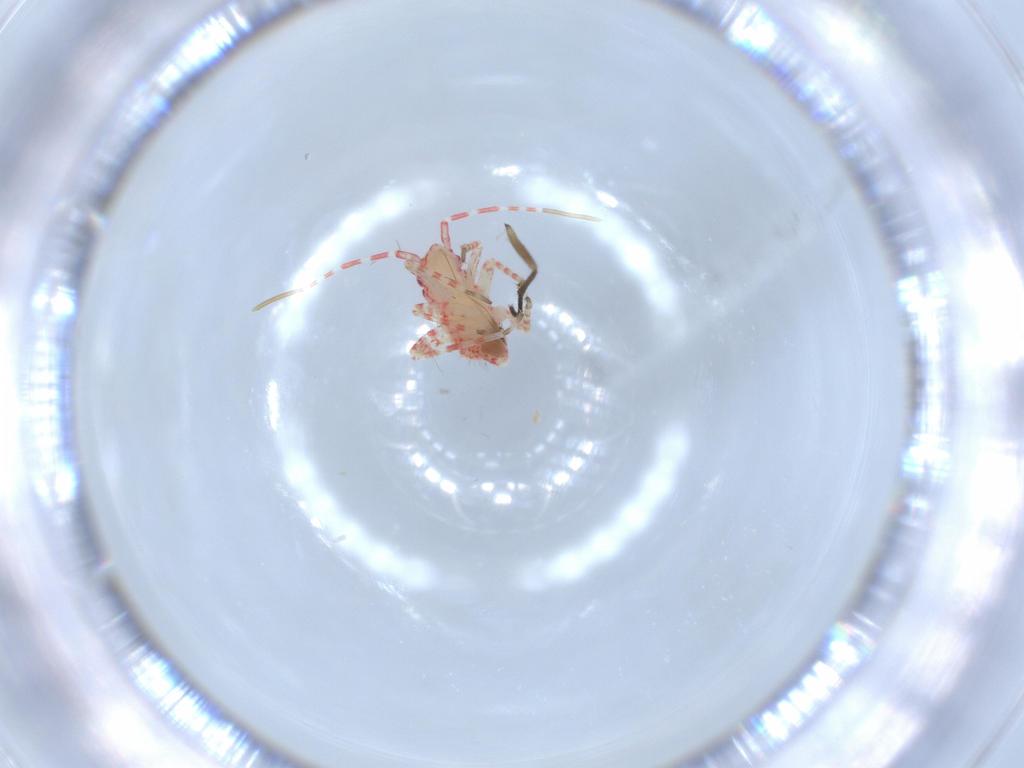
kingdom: Animalia
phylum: Arthropoda
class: Insecta
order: Hemiptera
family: Miridae
